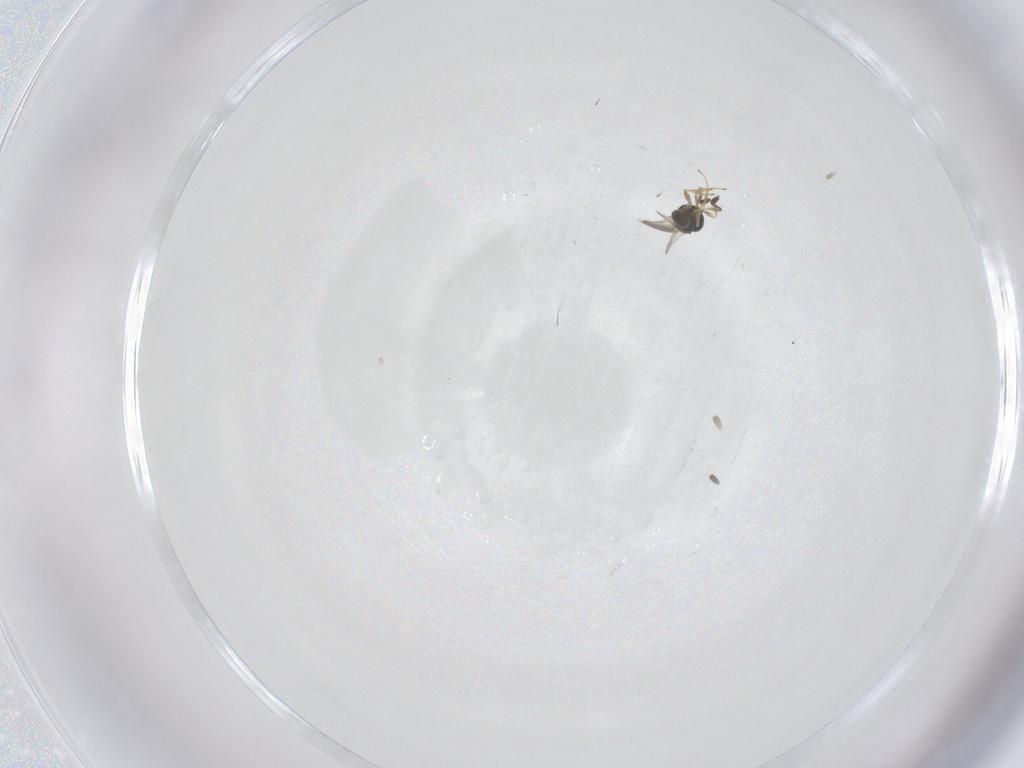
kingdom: Animalia
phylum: Arthropoda
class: Insecta
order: Hymenoptera
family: Scelionidae
